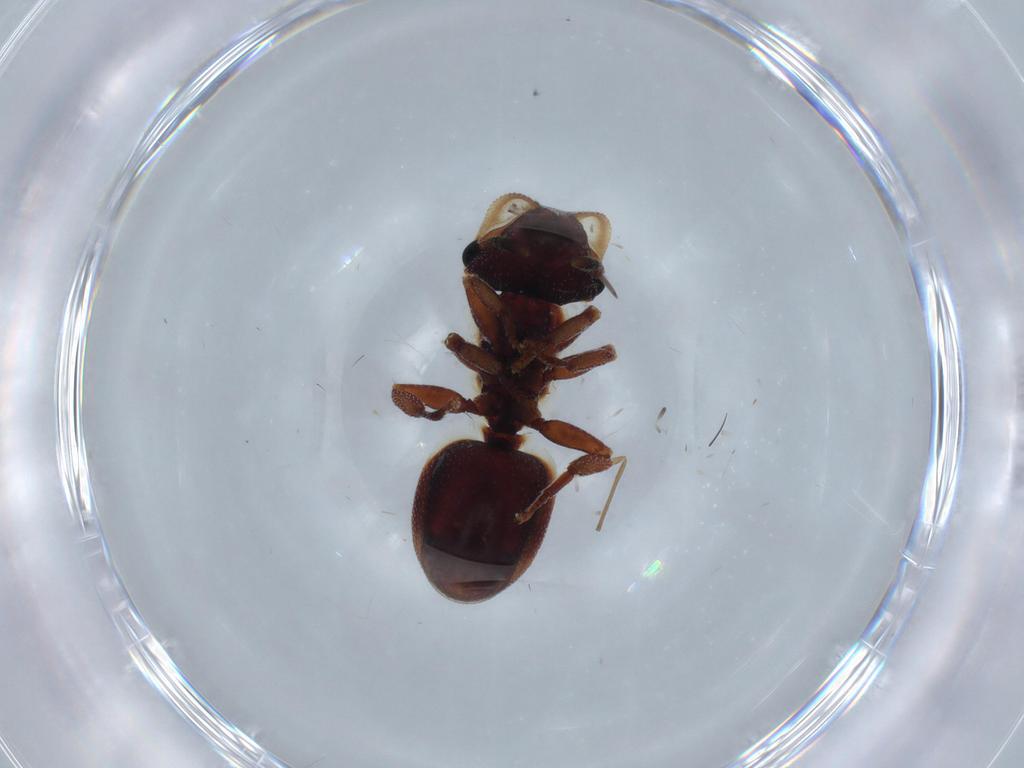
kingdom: Animalia
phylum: Arthropoda
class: Insecta
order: Hymenoptera
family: Formicidae
